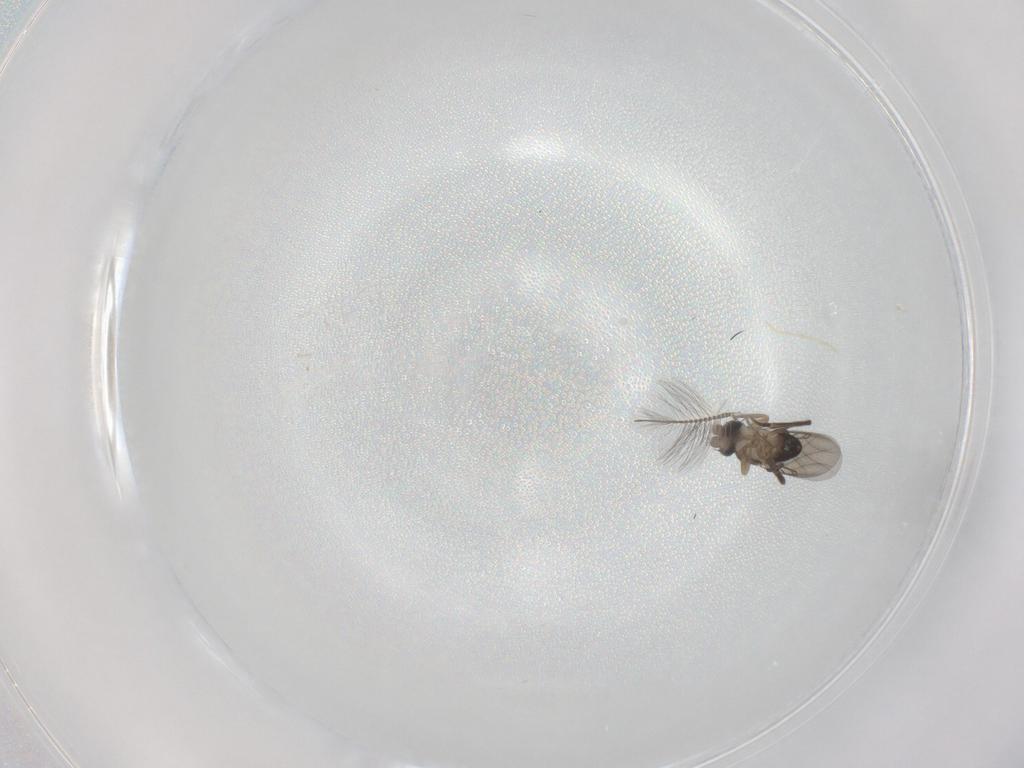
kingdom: Animalia
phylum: Arthropoda
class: Insecta
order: Diptera
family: Phoridae
